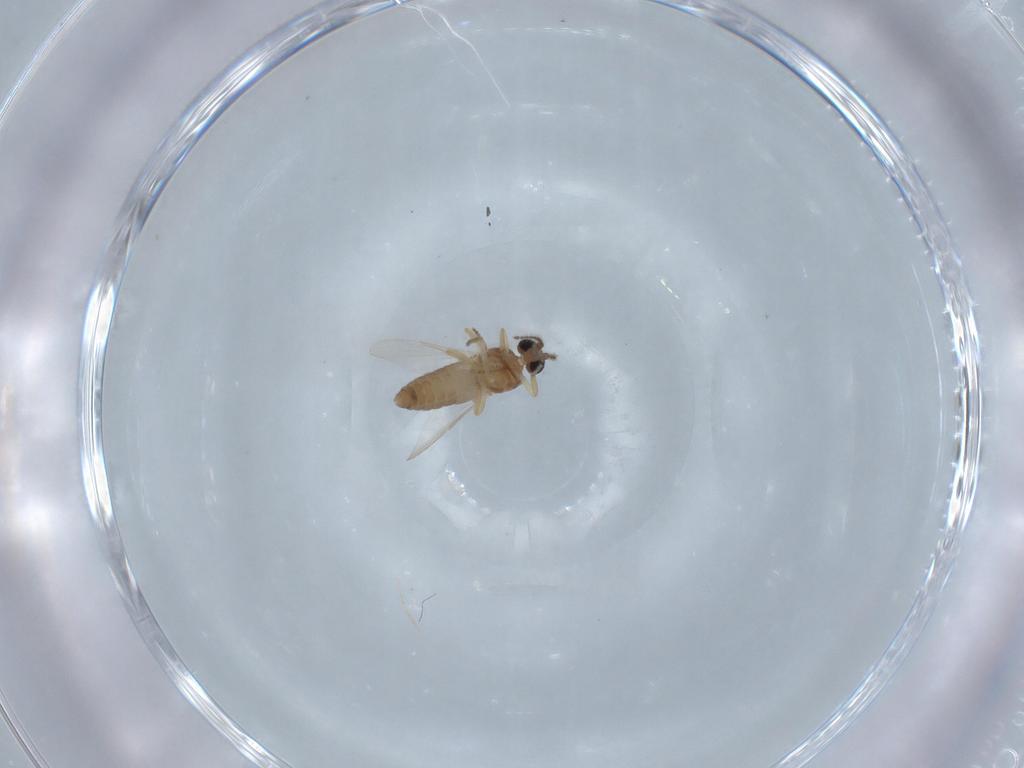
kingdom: Animalia
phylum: Arthropoda
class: Insecta
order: Diptera
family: Ceratopogonidae
